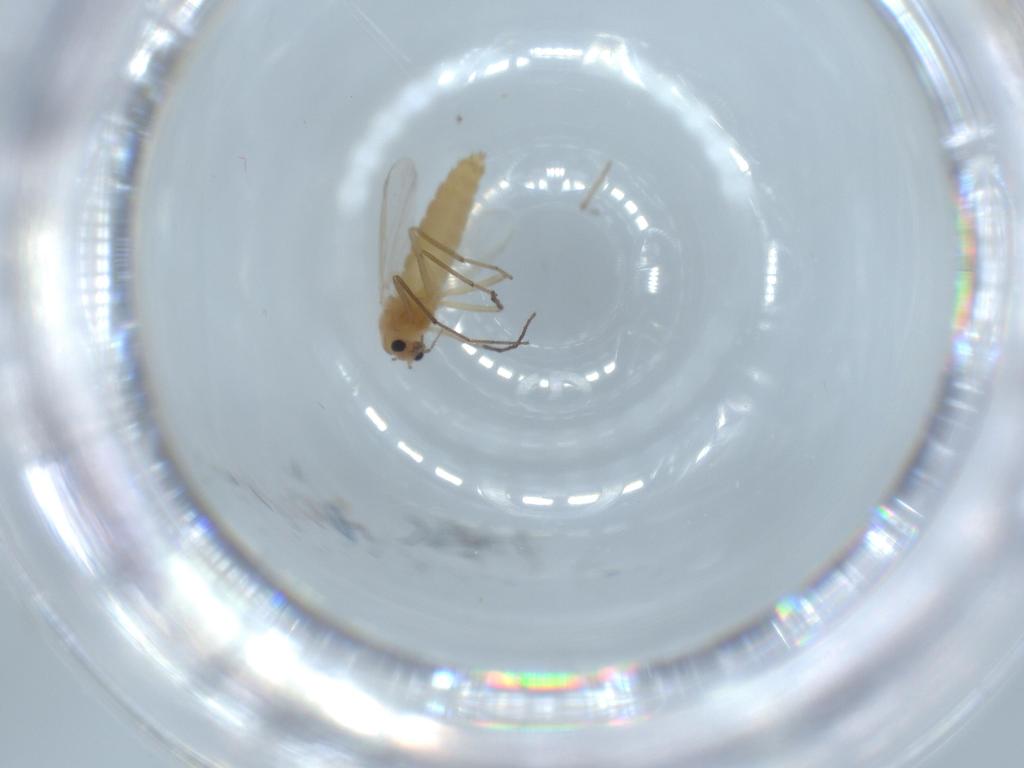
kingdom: Animalia
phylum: Arthropoda
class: Insecta
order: Diptera
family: Chironomidae
